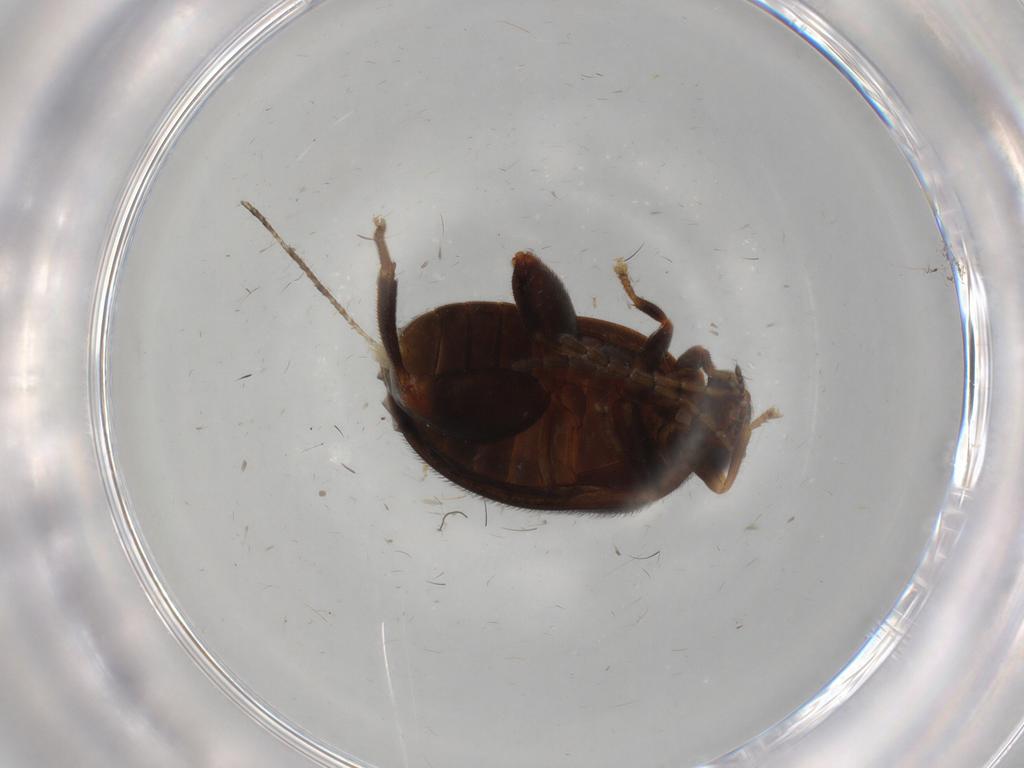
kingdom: Animalia
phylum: Arthropoda
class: Insecta
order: Coleoptera
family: Scirtidae
